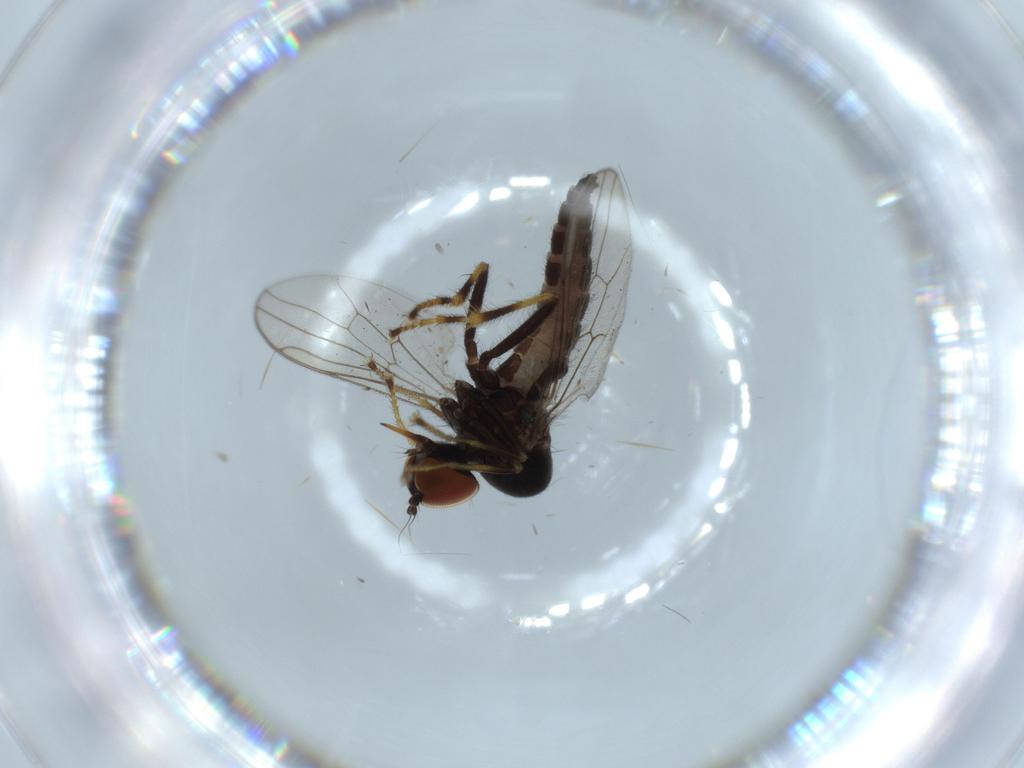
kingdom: Animalia
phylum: Arthropoda
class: Insecta
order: Diptera
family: Hybotidae
